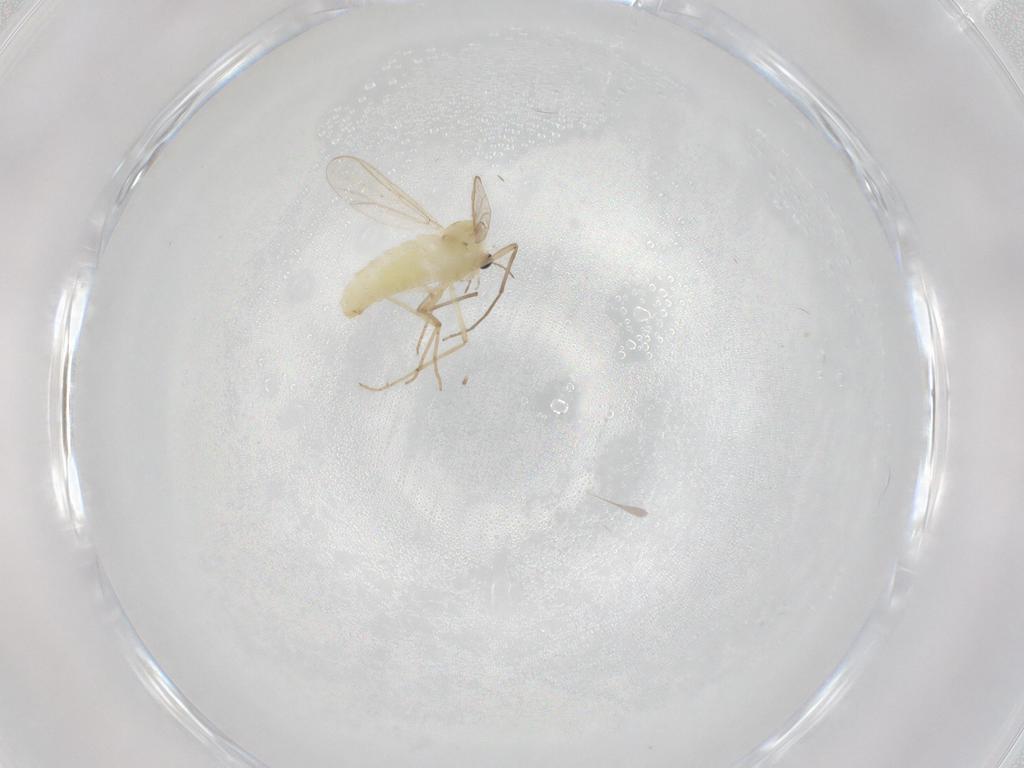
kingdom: Animalia
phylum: Arthropoda
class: Insecta
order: Diptera
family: Chironomidae
